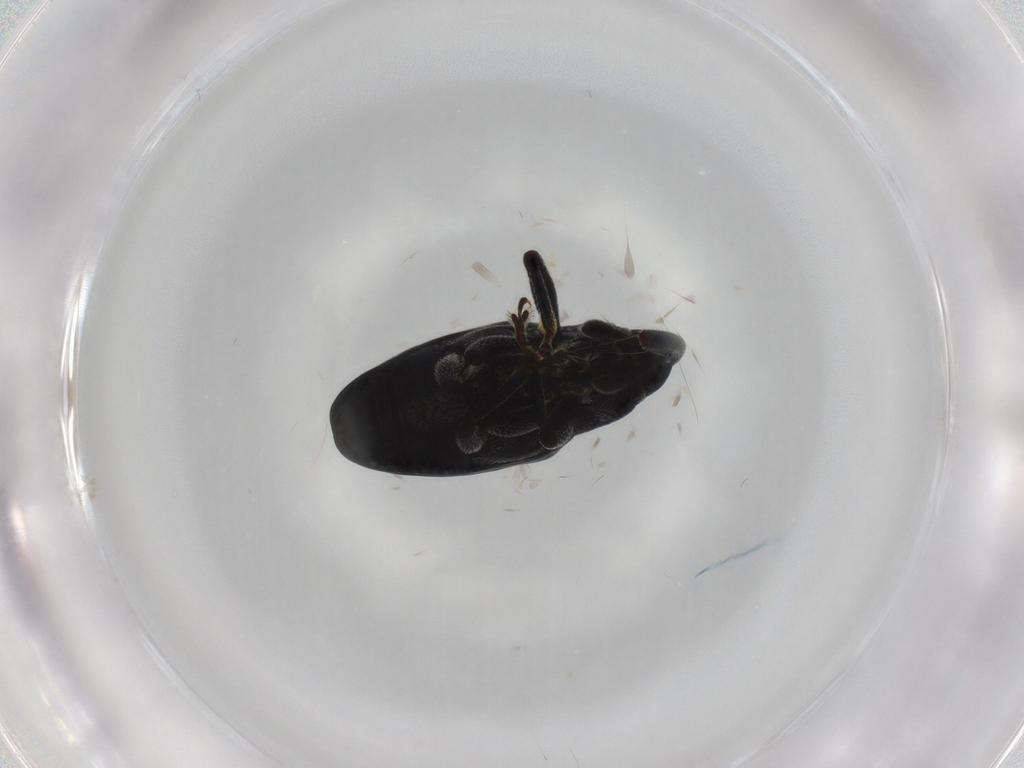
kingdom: Animalia
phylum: Arthropoda
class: Insecta
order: Coleoptera
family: Curculionidae
